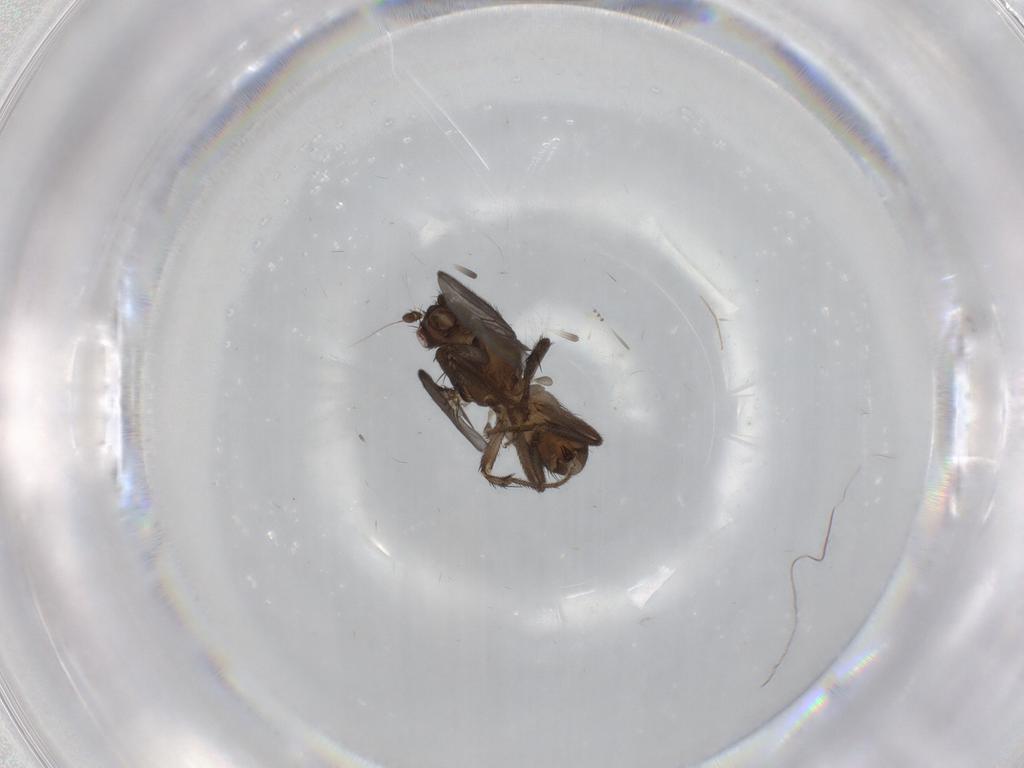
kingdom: Animalia
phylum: Arthropoda
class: Insecta
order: Diptera
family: Sphaeroceridae
